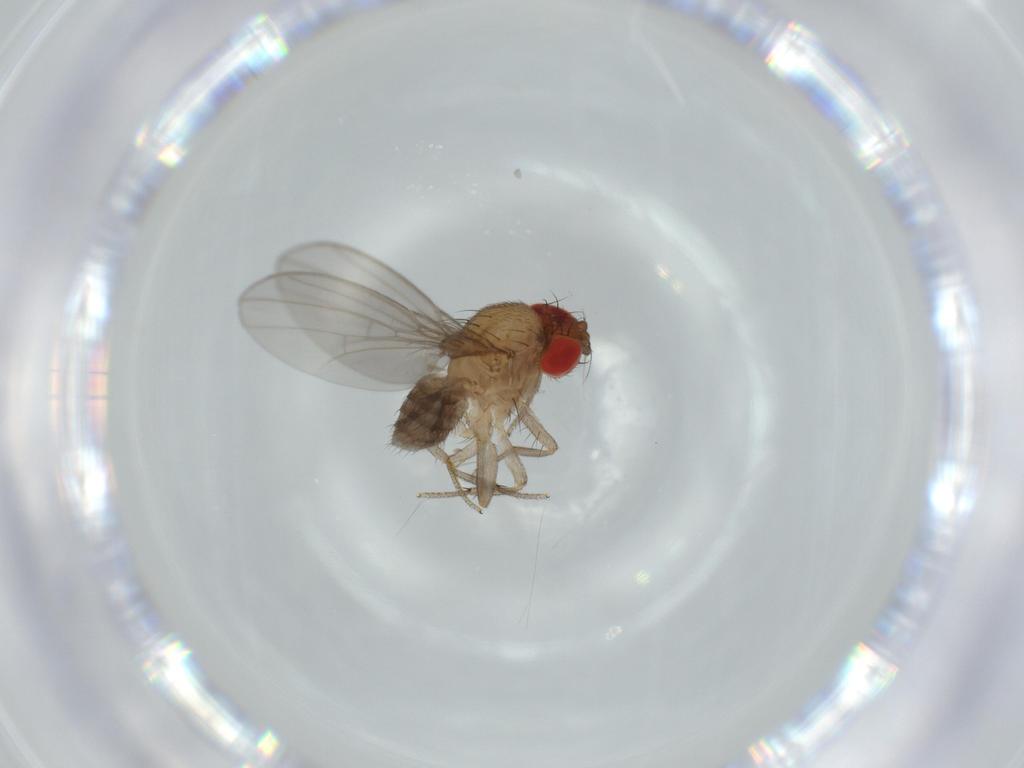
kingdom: Animalia
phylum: Arthropoda
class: Insecta
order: Diptera
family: Drosophilidae
